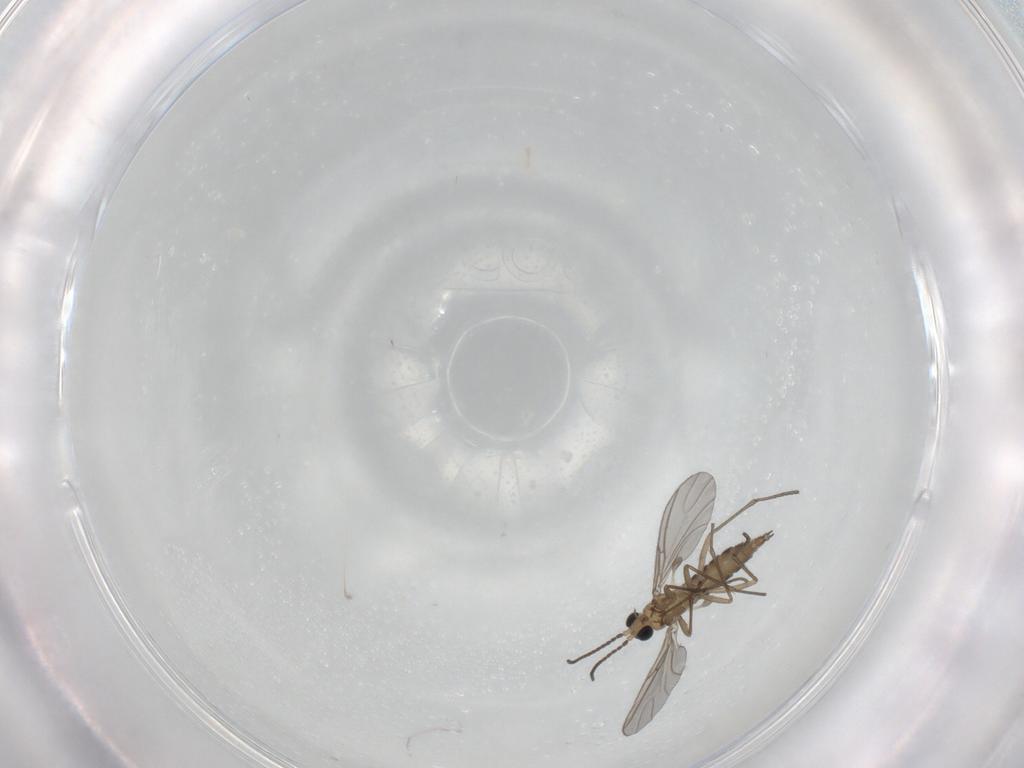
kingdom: Animalia
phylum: Arthropoda
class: Insecta
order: Diptera
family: Sciaridae
